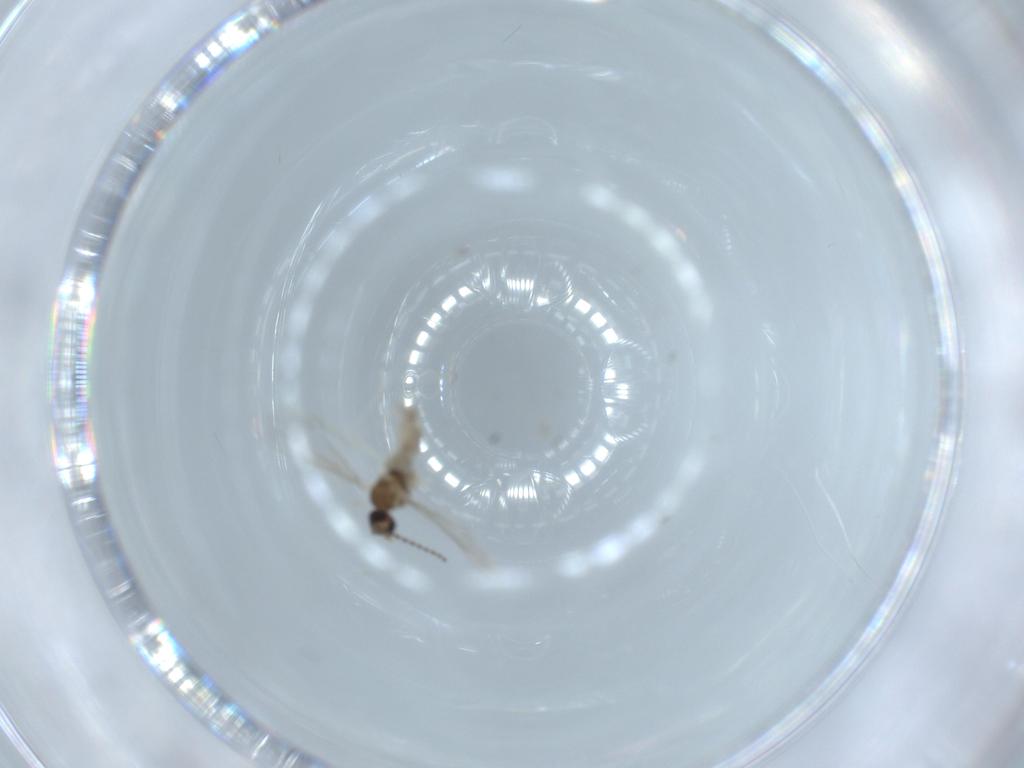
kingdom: Animalia
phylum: Arthropoda
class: Insecta
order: Diptera
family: Cecidomyiidae
